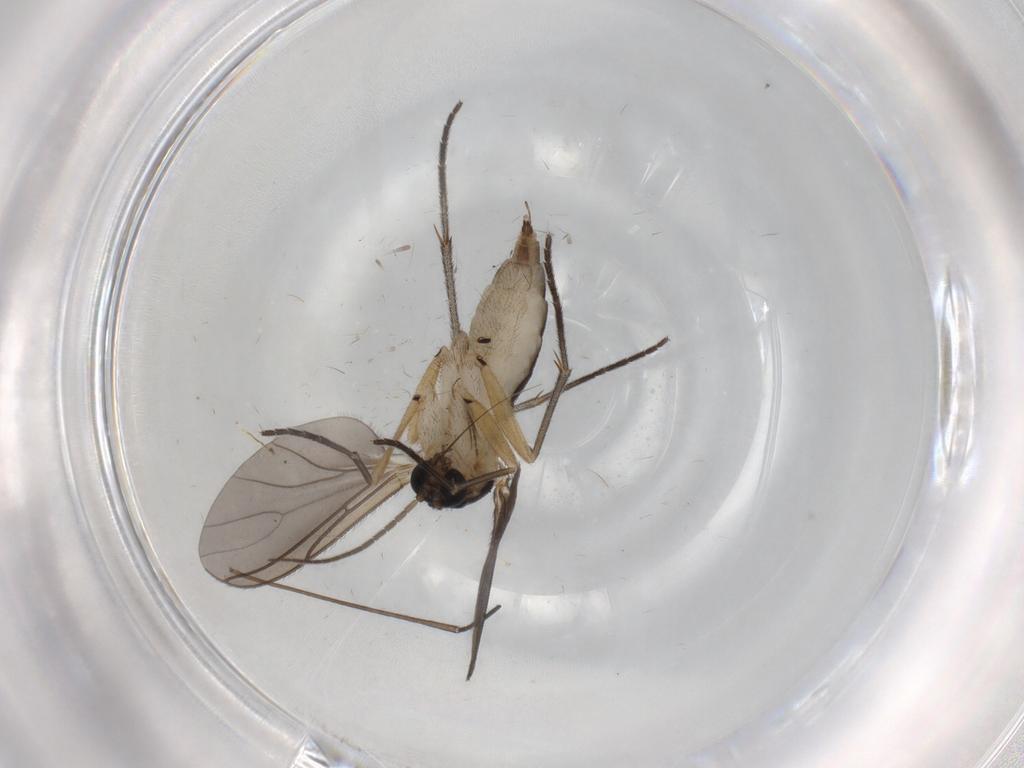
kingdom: Animalia
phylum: Arthropoda
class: Insecta
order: Diptera
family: Sciaridae
